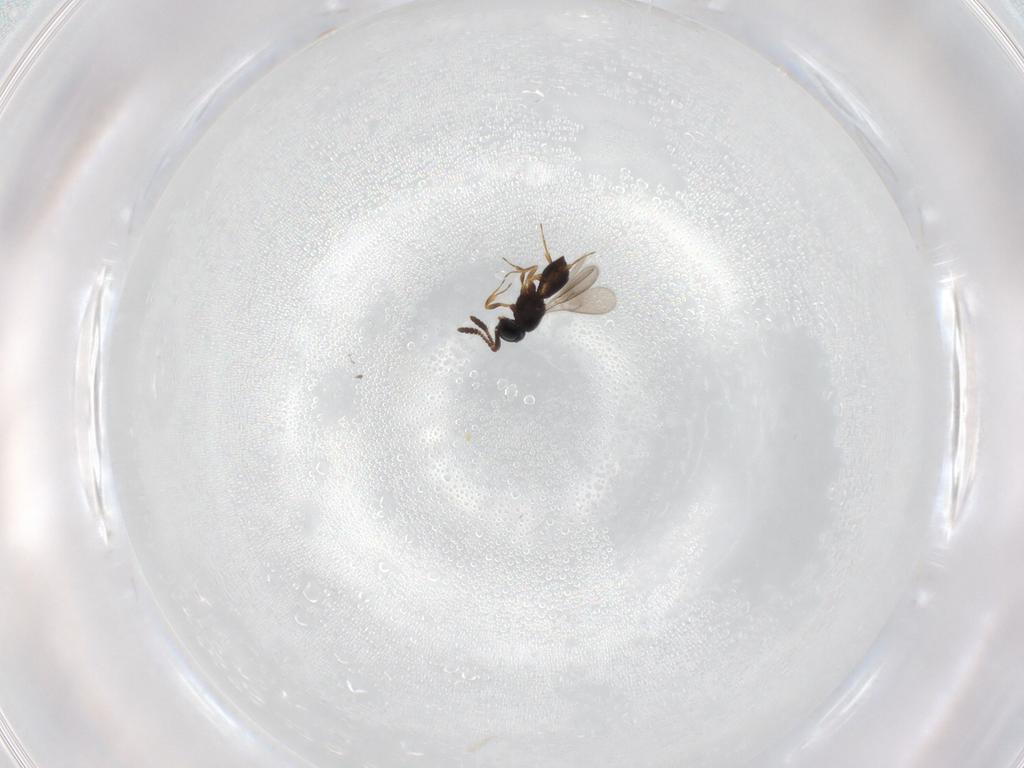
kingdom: Animalia
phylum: Arthropoda
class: Insecta
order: Hymenoptera
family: Scelionidae
